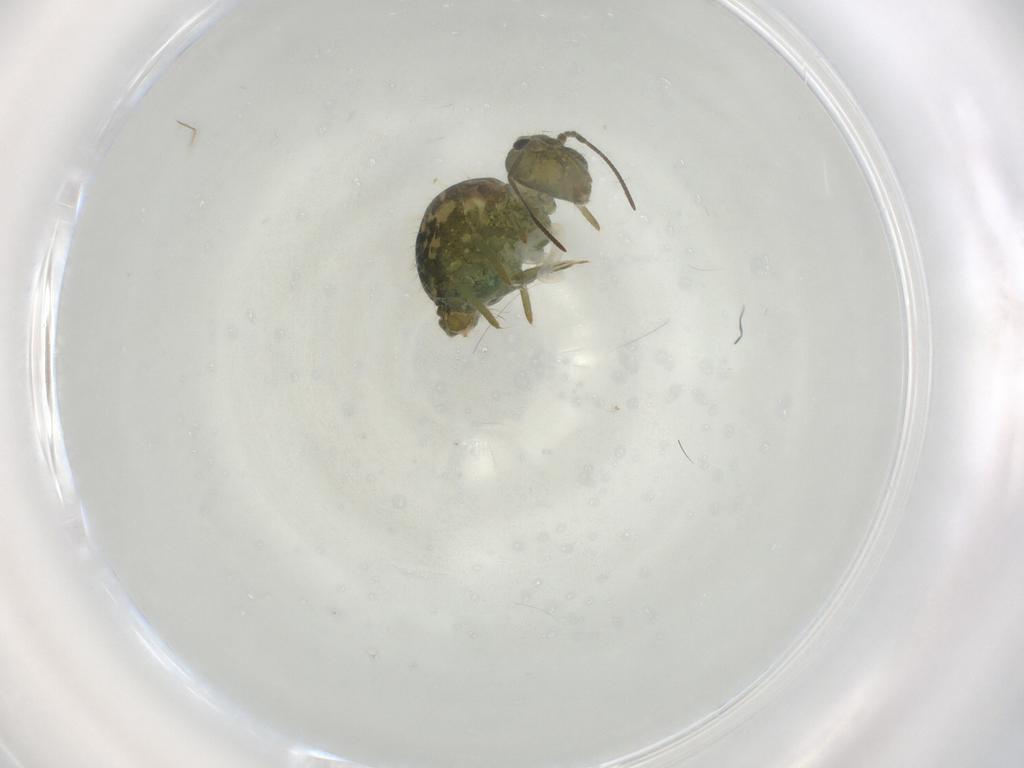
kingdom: Animalia
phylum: Arthropoda
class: Collembola
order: Symphypleona
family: Sminthuridae
